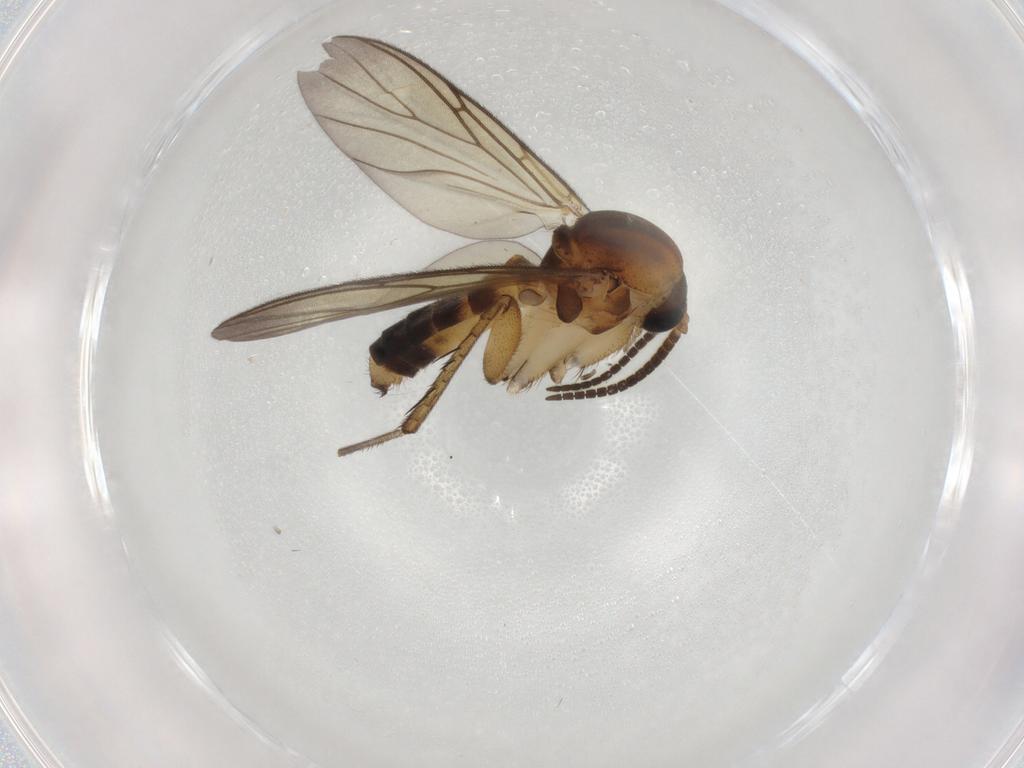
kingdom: Animalia
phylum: Arthropoda
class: Insecta
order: Diptera
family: Mycetophilidae
